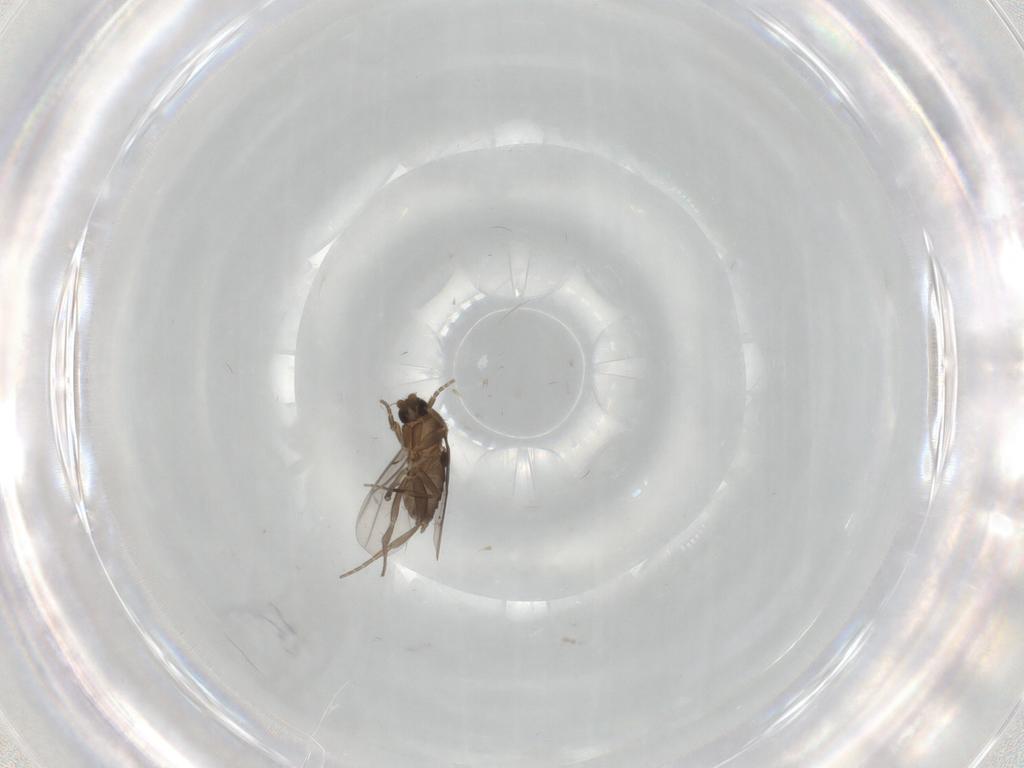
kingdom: Animalia
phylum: Arthropoda
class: Insecta
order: Diptera
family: Phoridae
